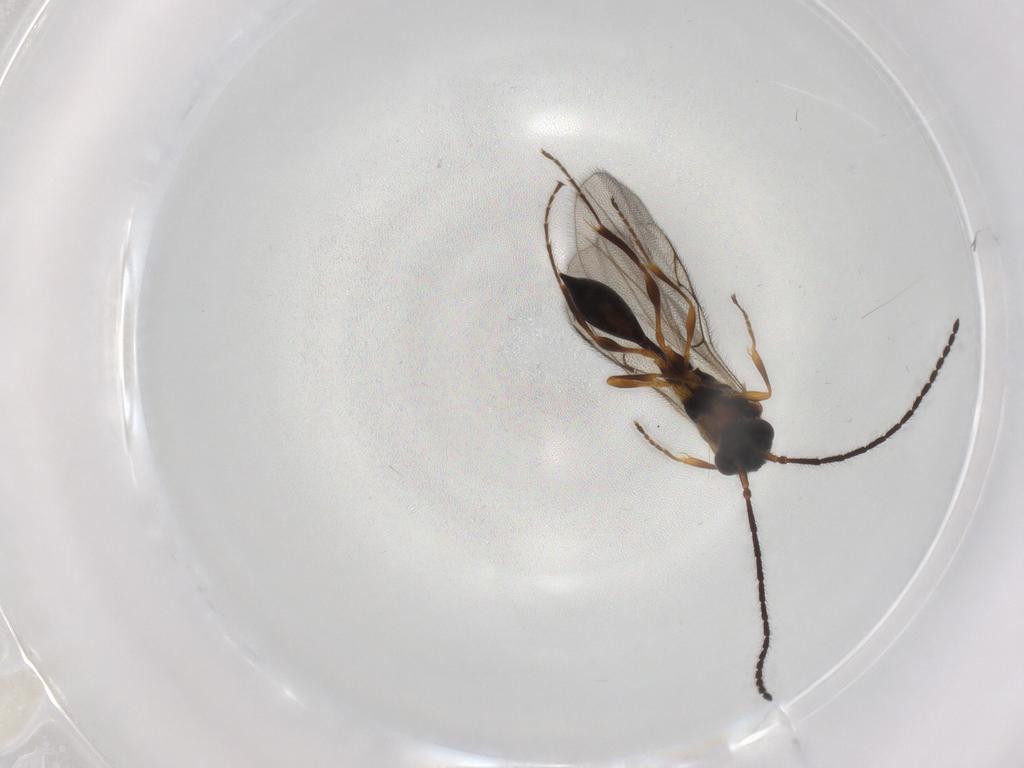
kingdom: Animalia
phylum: Arthropoda
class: Insecta
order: Hymenoptera
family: Diapriidae
